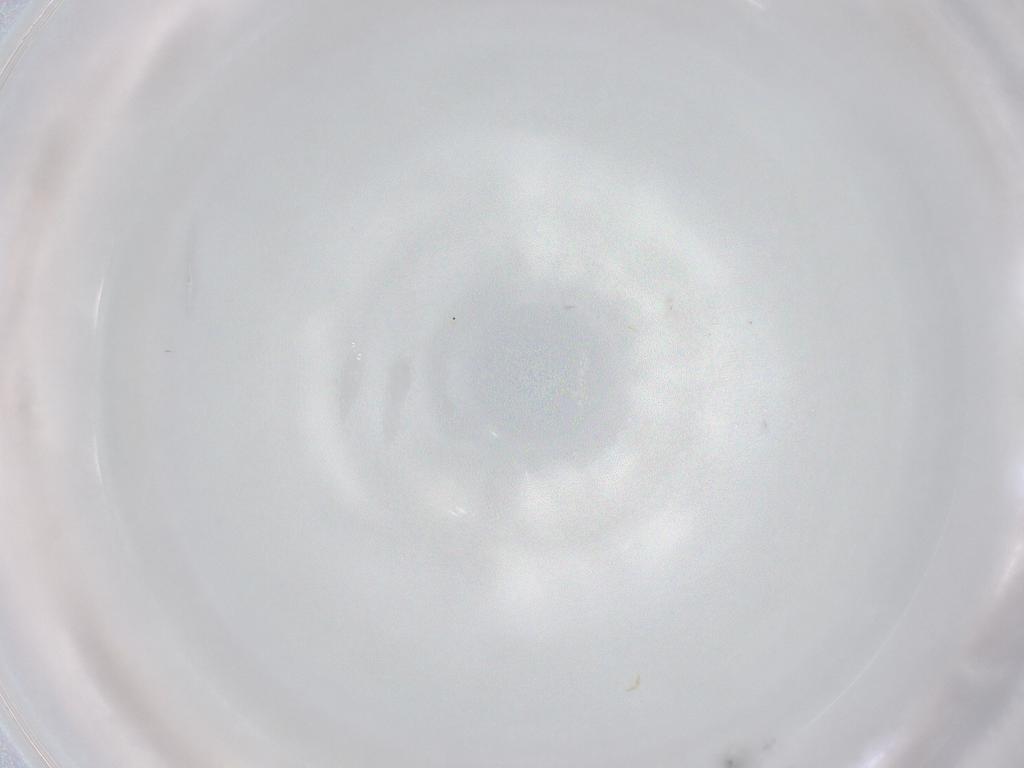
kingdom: Animalia
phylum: Arthropoda
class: Collembola
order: Entomobryomorpha
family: Entomobryidae
